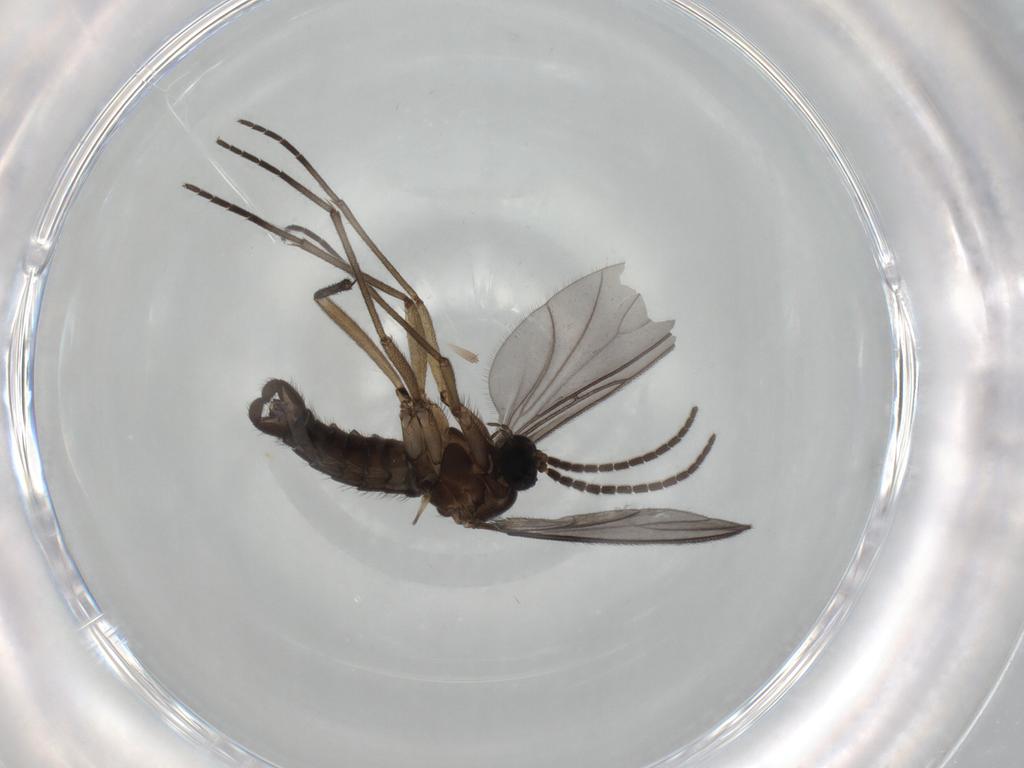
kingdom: Animalia
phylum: Arthropoda
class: Insecta
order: Diptera
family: Sciaridae
